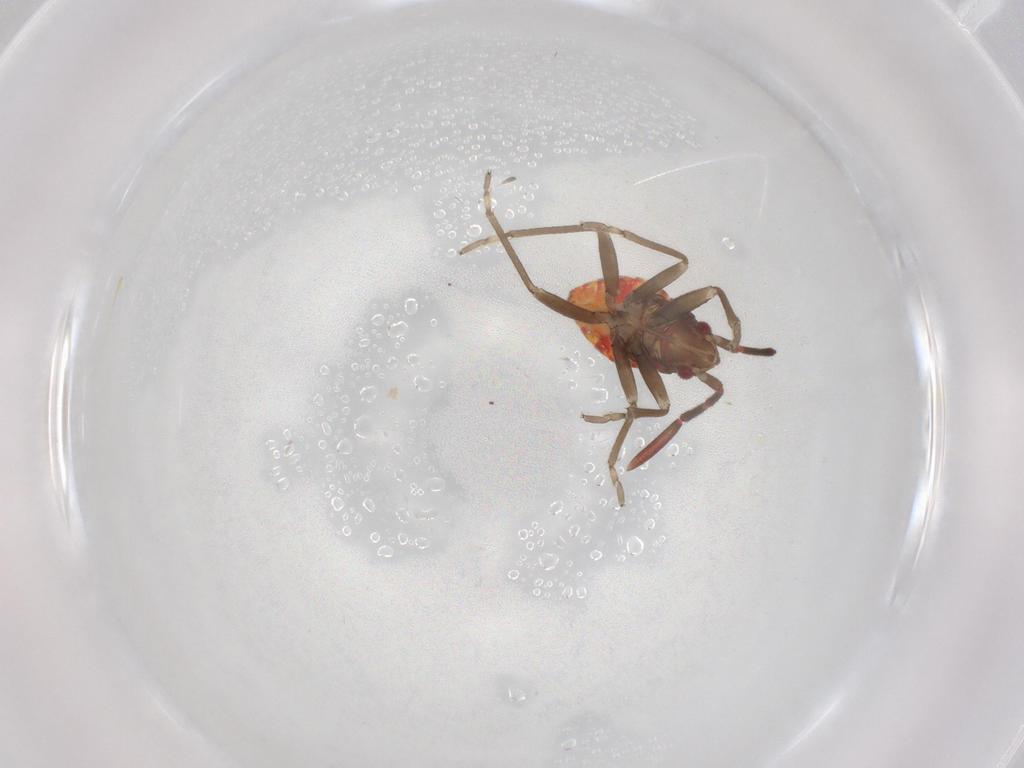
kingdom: Animalia
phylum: Arthropoda
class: Insecta
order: Hemiptera
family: Rhyparochromidae
